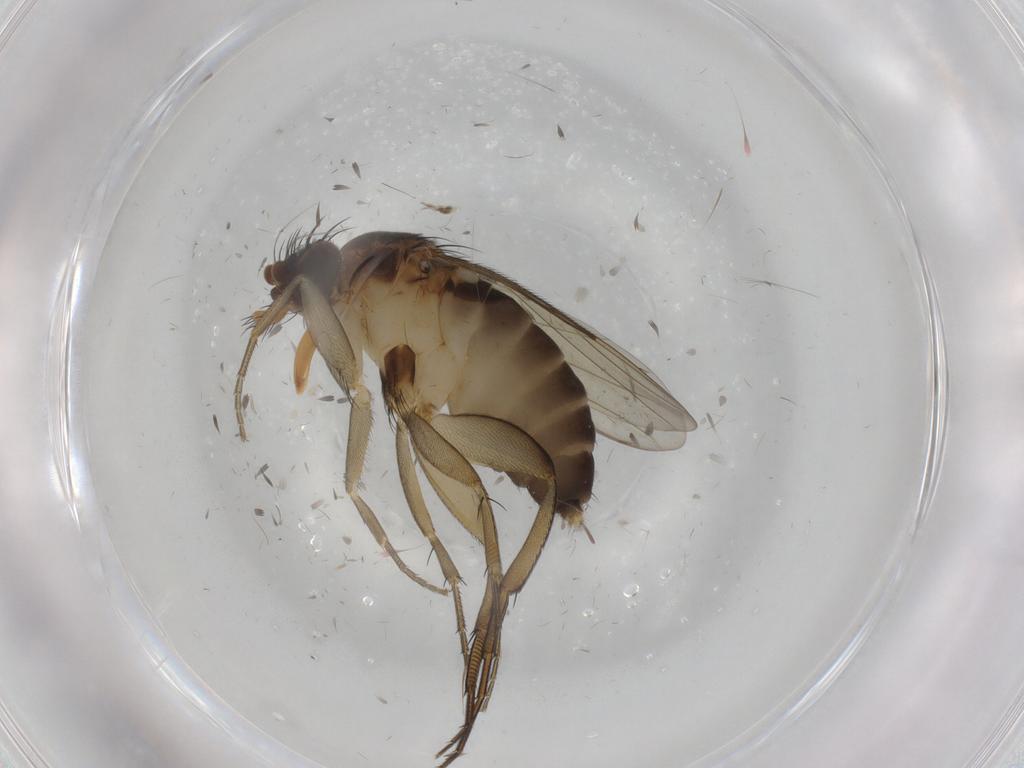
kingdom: Animalia
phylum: Arthropoda
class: Insecta
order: Diptera
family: Phoridae
